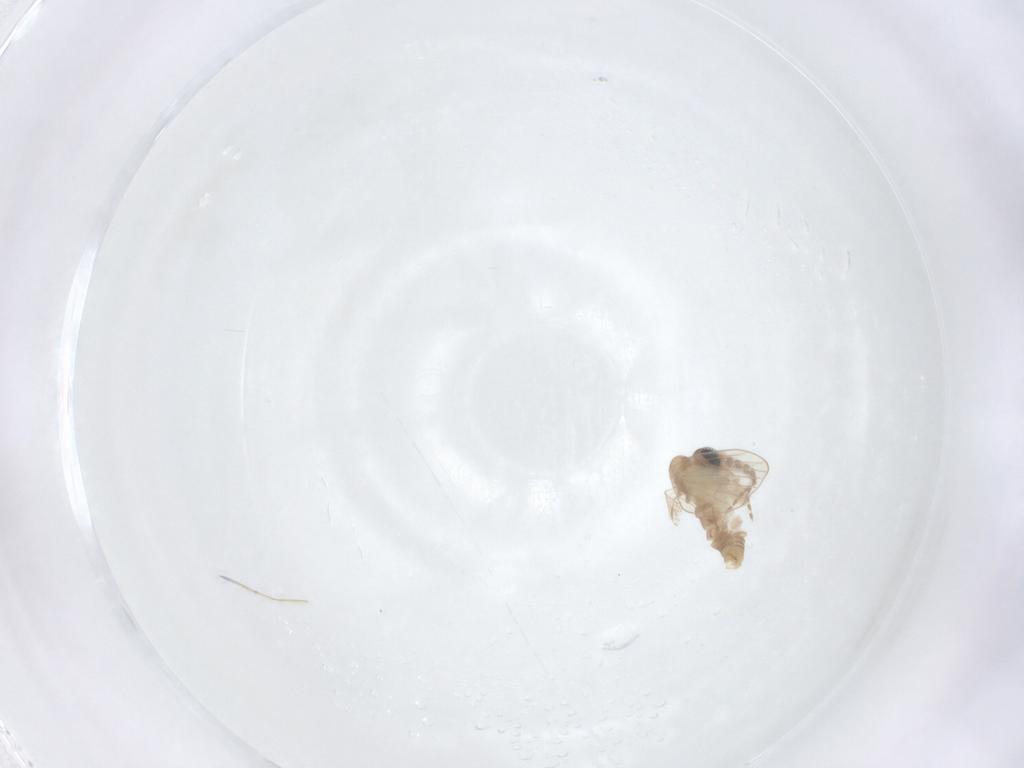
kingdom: Animalia
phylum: Arthropoda
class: Insecta
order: Diptera
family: Psychodidae
